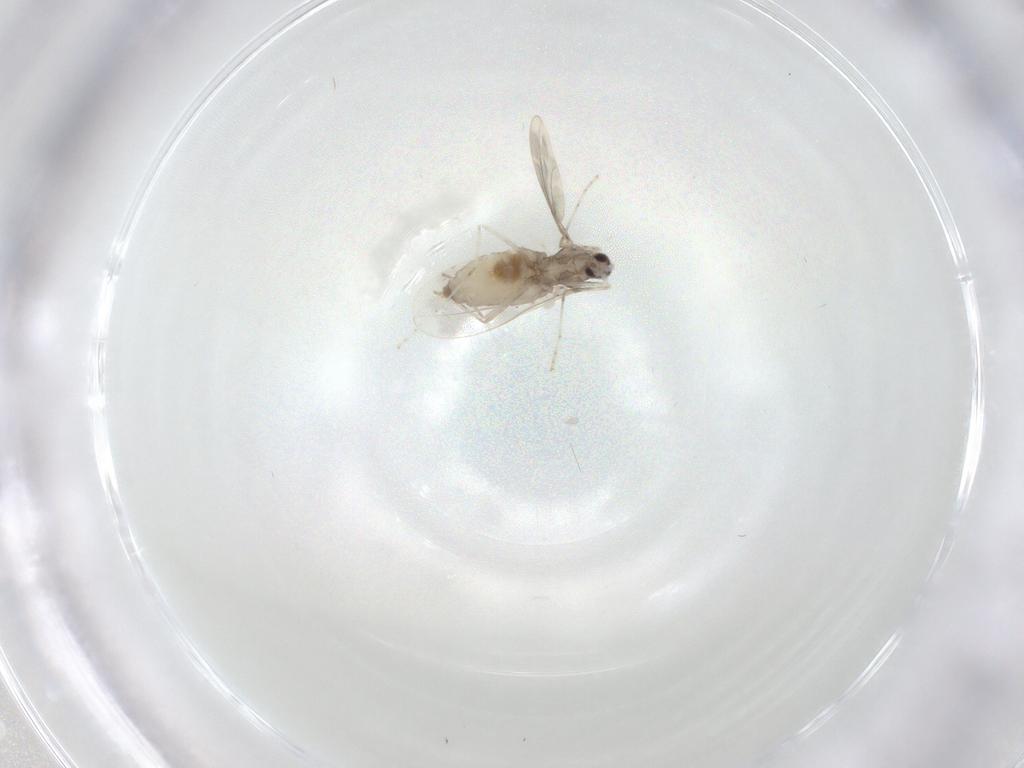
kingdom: Animalia
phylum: Arthropoda
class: Insecta
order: Diptera
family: Cecidomyiidae
